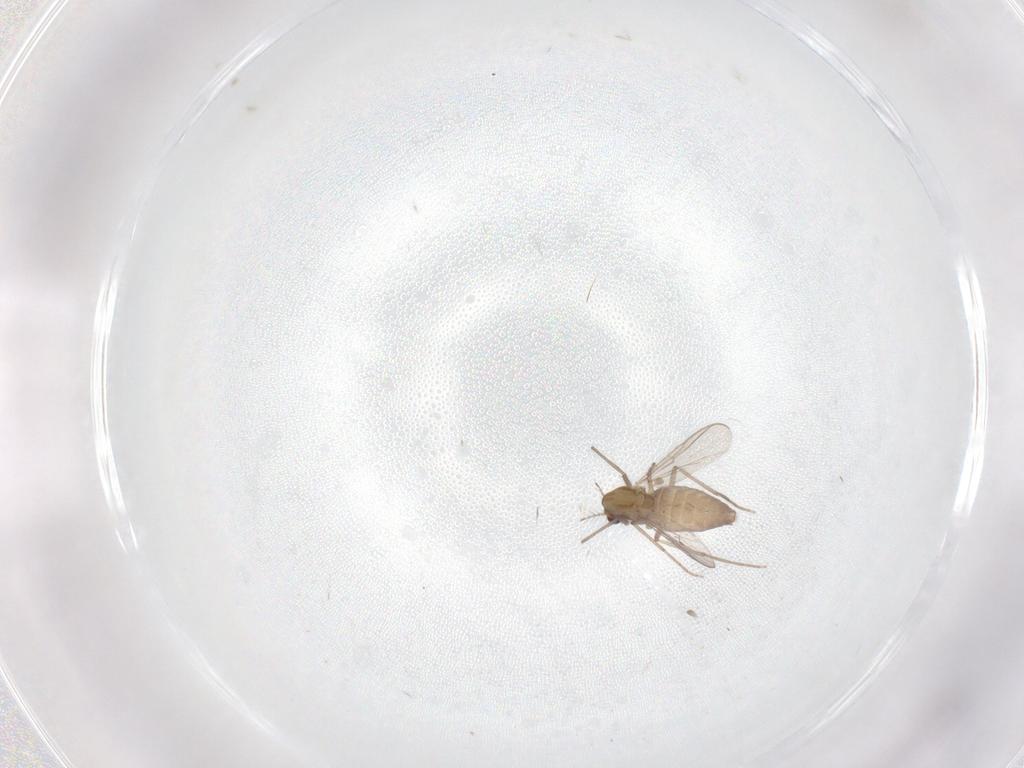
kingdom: Animalia
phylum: Arthropoda
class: Insecta
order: Diptera
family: Chironomidae
